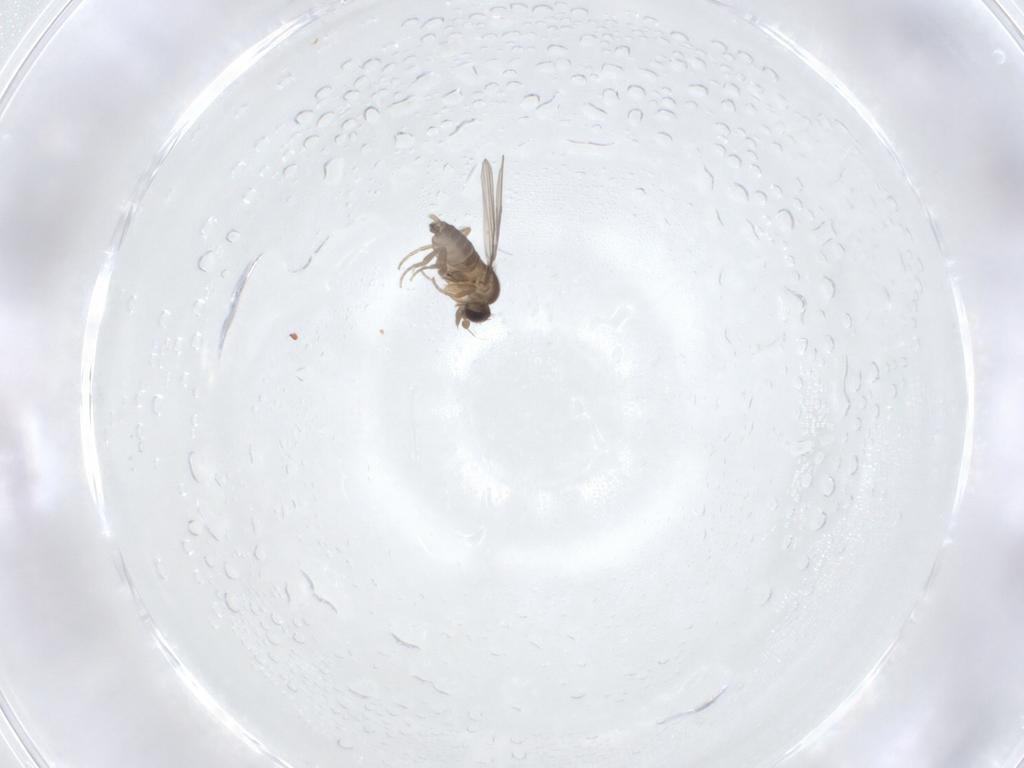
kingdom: Animalia
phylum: Arthropoda
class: Insecta
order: Diptera
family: Phoridae
